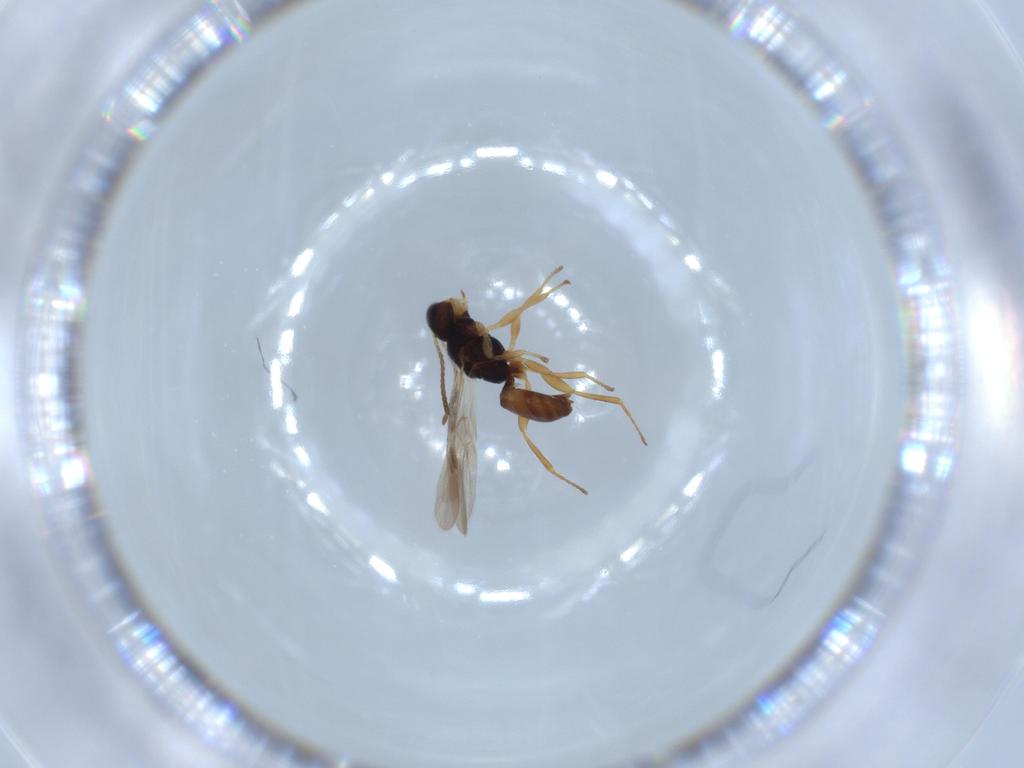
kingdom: Animalia
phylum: Arthropoda
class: Insecta
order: Hymenoptera
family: Braconidae
